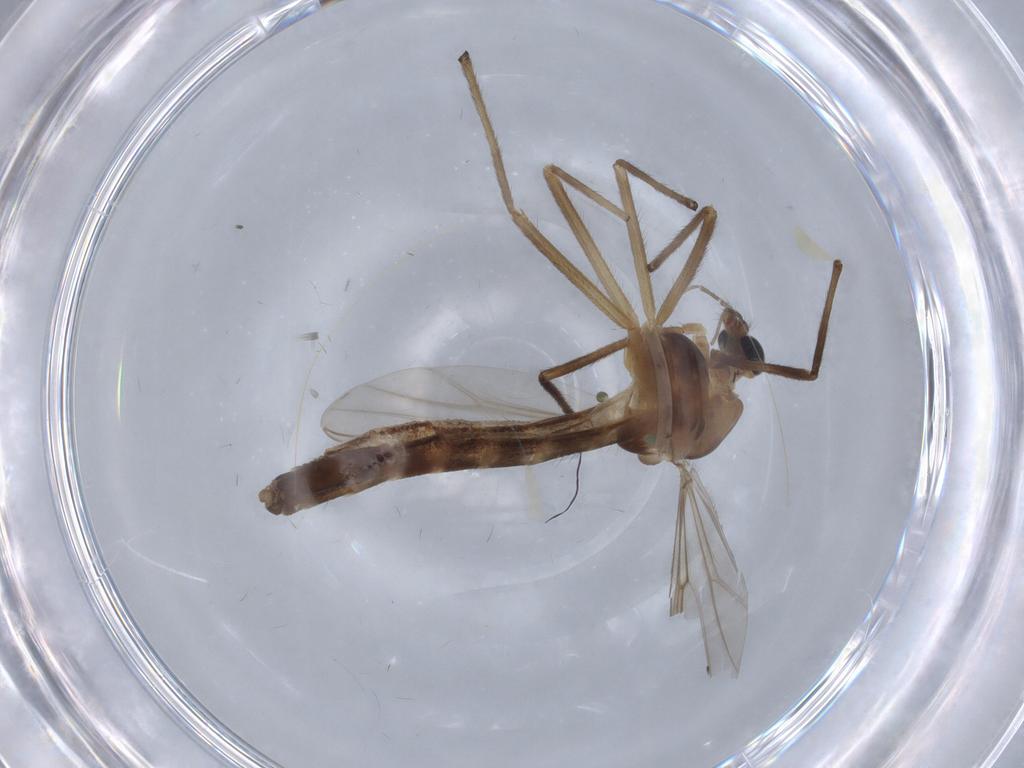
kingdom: Animalia
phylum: Arthropoda
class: Insecta
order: Diptera
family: Chironomidae
